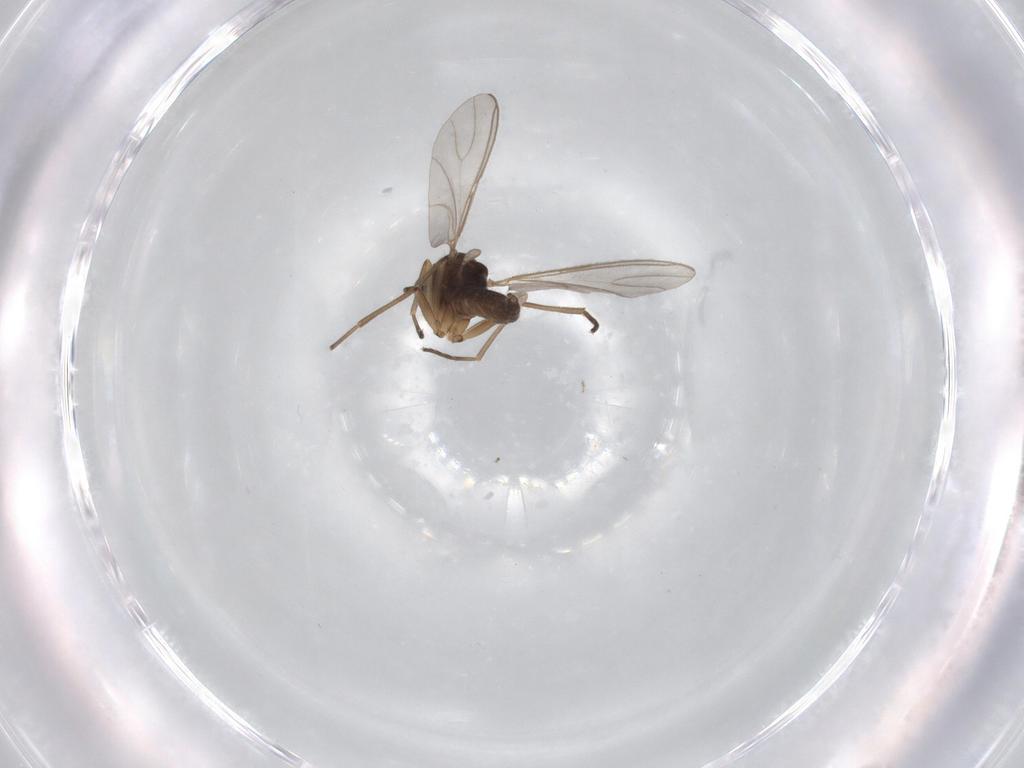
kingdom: Animalia
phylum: Arthropoda
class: Insecta
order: Diptera
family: Sciaridae
